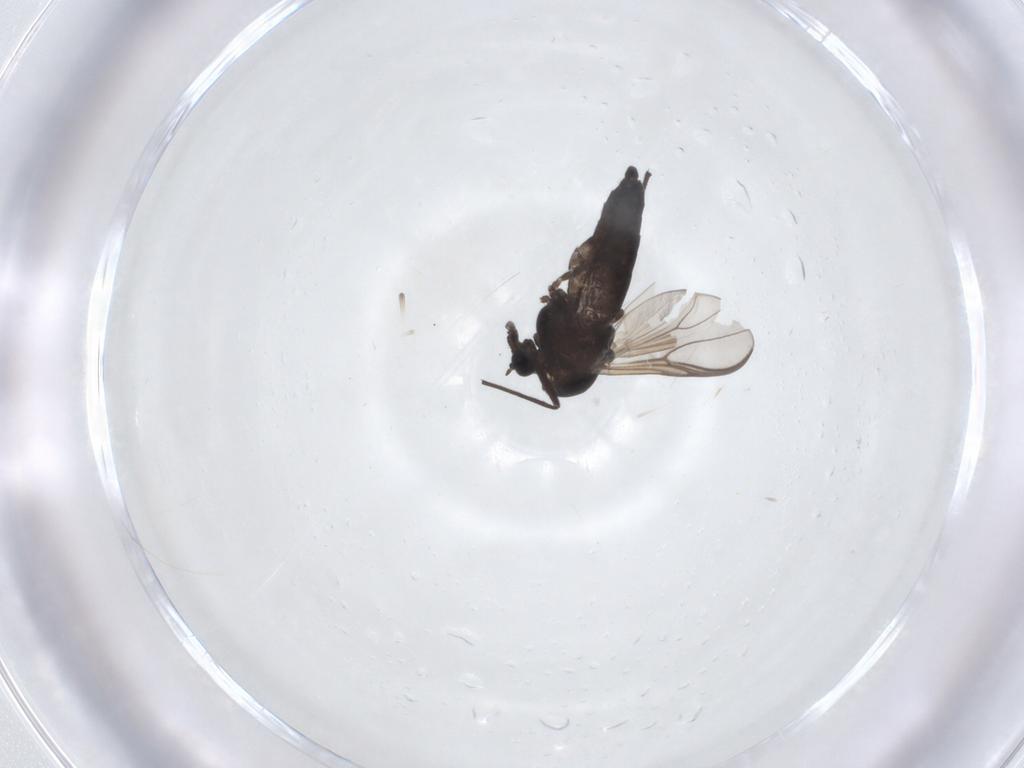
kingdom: Animalia
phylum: Arthropoda
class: Insecta
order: Diptera
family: Chironomidae
